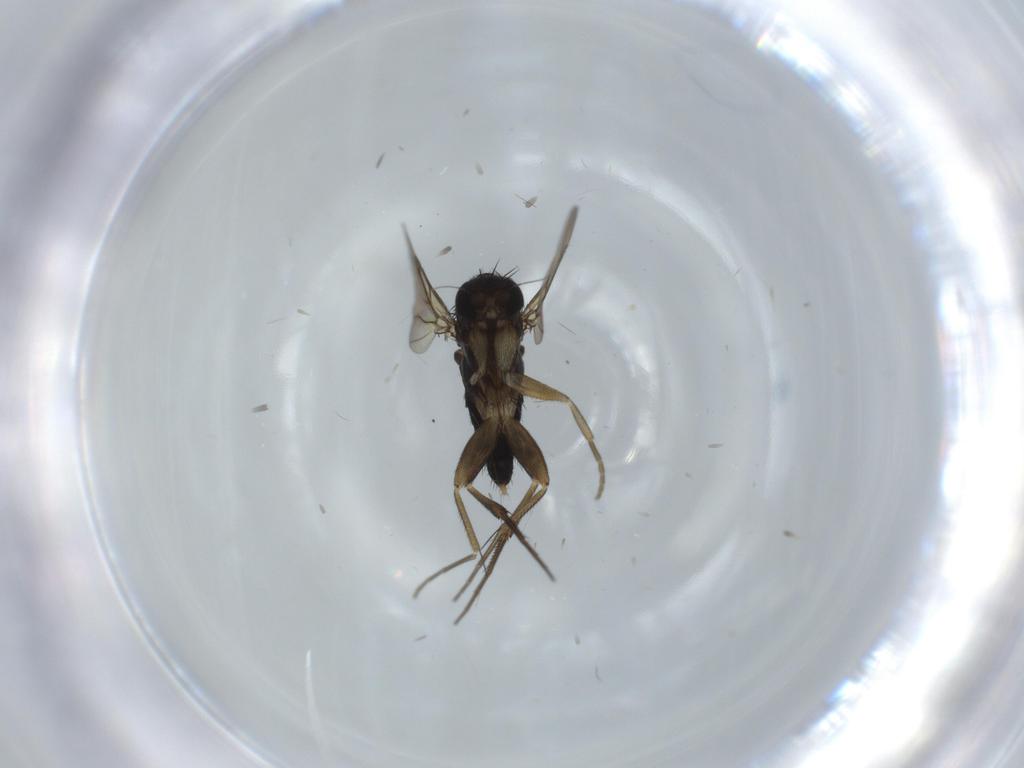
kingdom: Animalia
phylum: Arthropoda
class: Insecta
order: Diptera
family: Phoridae
